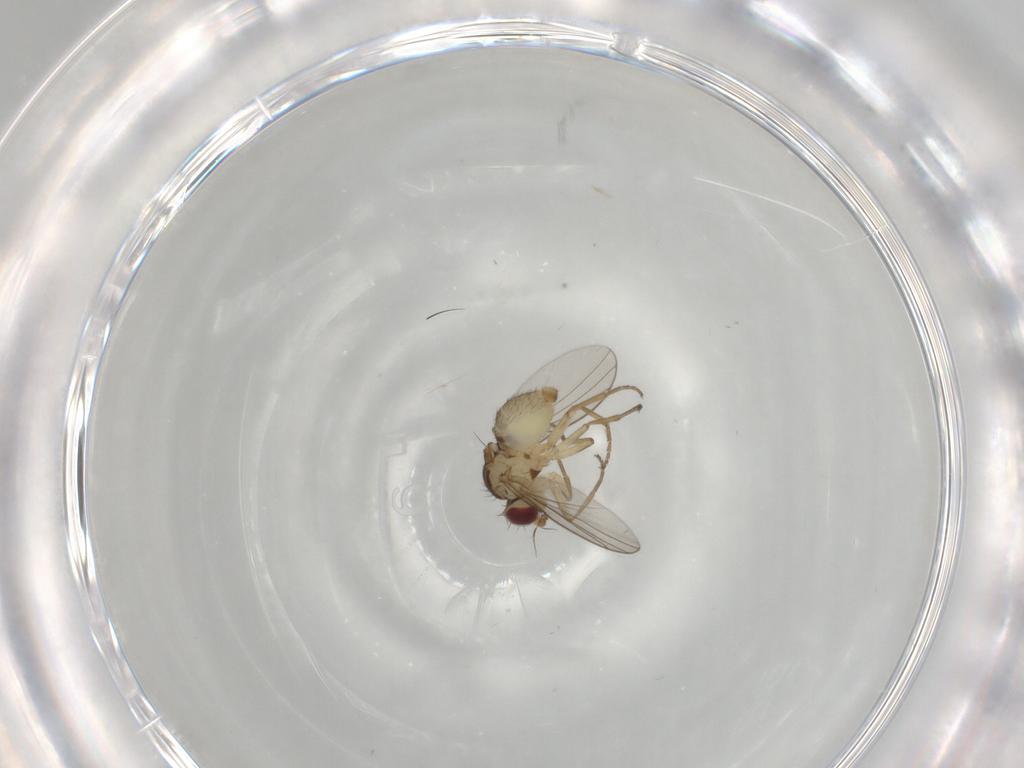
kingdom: Animalia
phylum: Arthropoda
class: Insecta
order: Diptera
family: Agromyzidae
